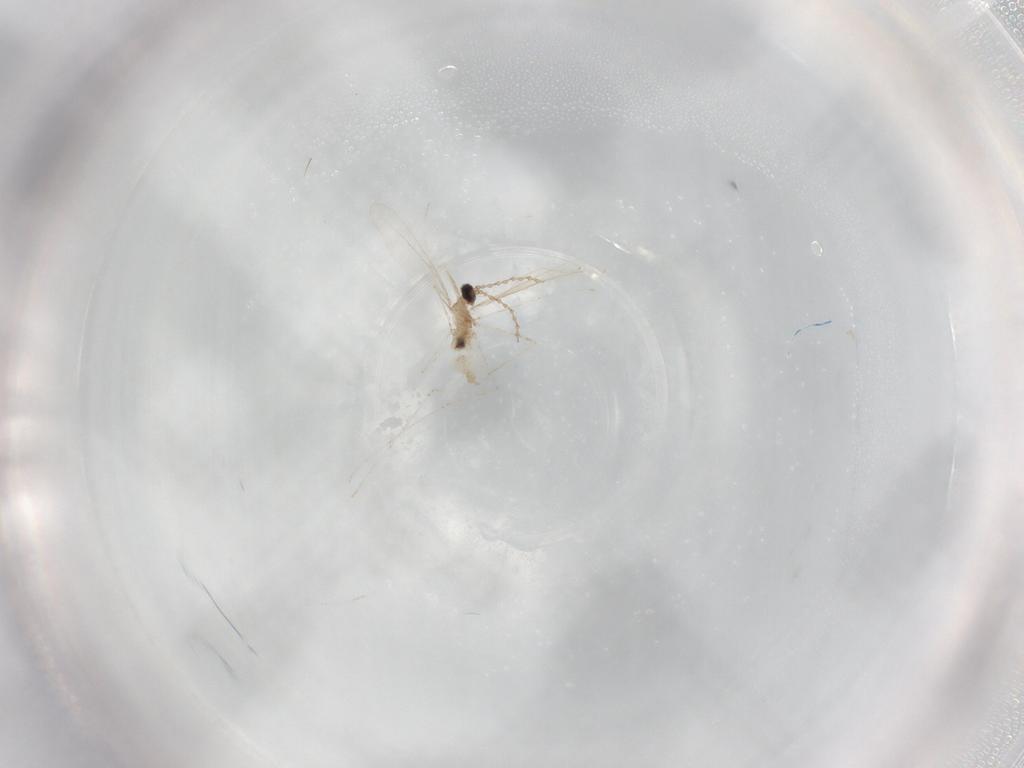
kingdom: Animalia
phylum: Arthropoda
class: Insecta
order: Diptera
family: Cecidomyiidae
